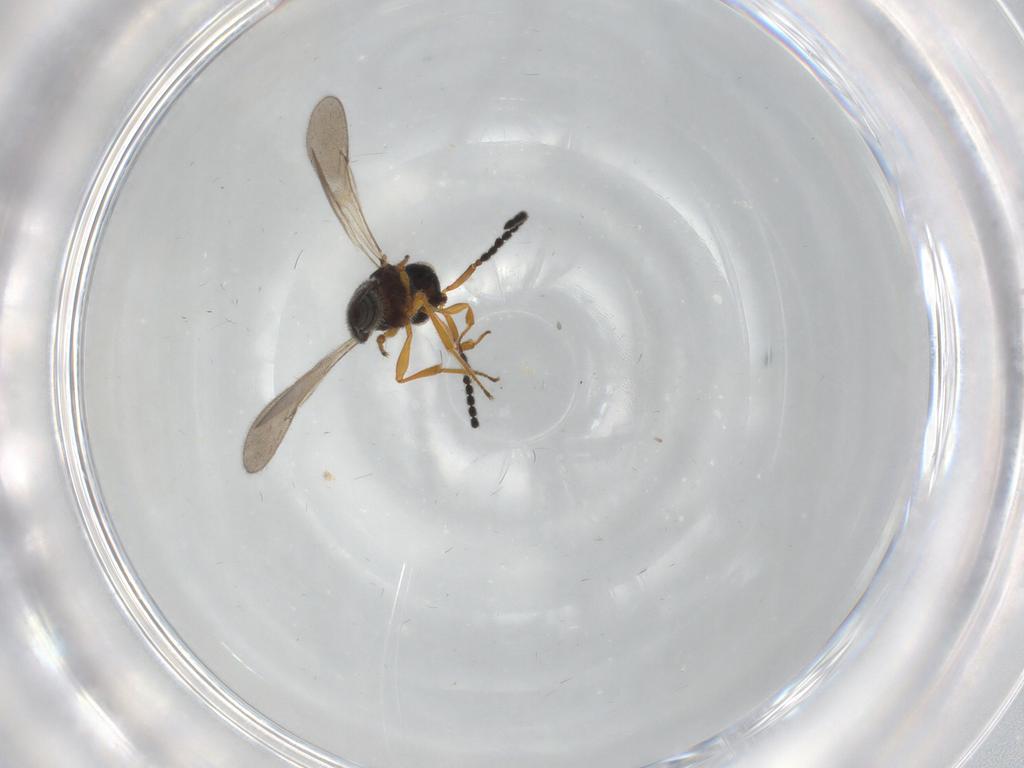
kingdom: Animalia
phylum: Arthropoda
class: Insecta
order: Hymenoptera
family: Scelionidae
